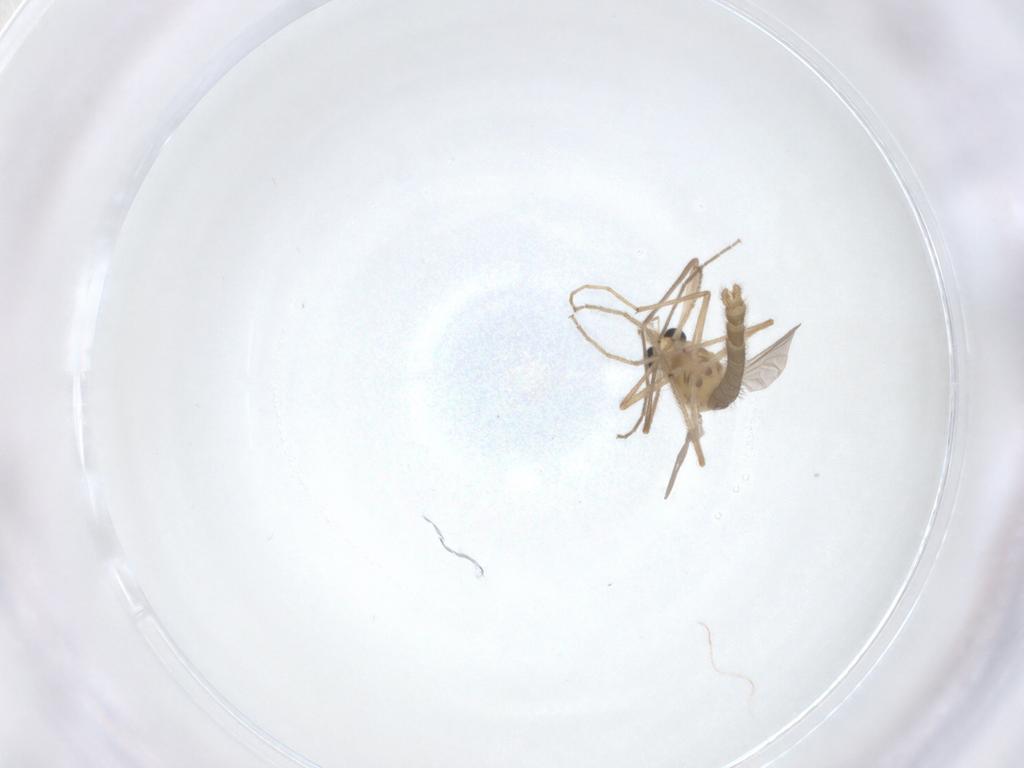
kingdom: Animalia
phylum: Arthropoda
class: Insecta
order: Diptera
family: Chironomidae
